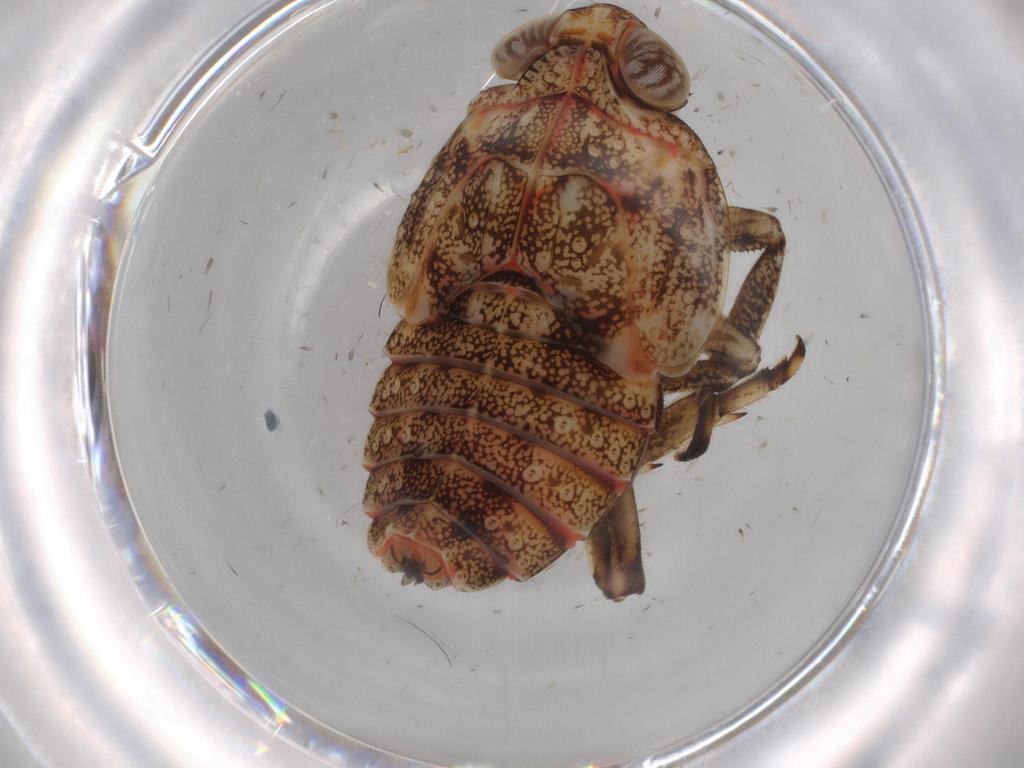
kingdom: Animalia
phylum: Arthropoda
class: Insecta
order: Hemiptera
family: Issidae
